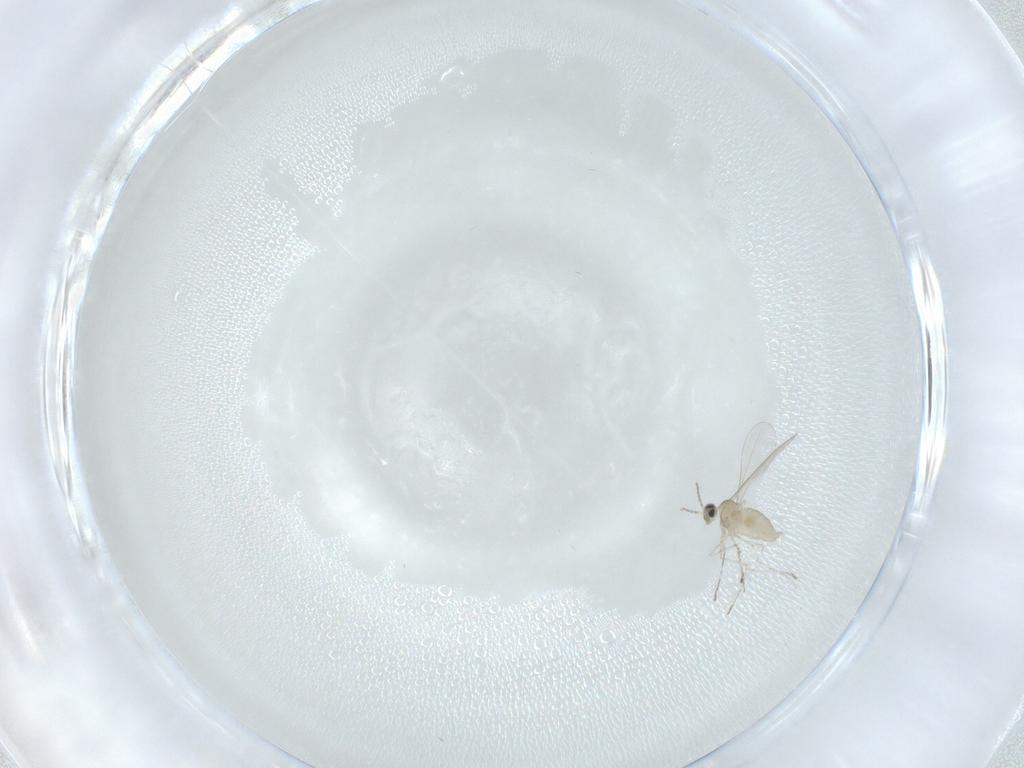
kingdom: Animalia
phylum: Arthropoda
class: Insecta
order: Diptera
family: Cecidomyiidae
